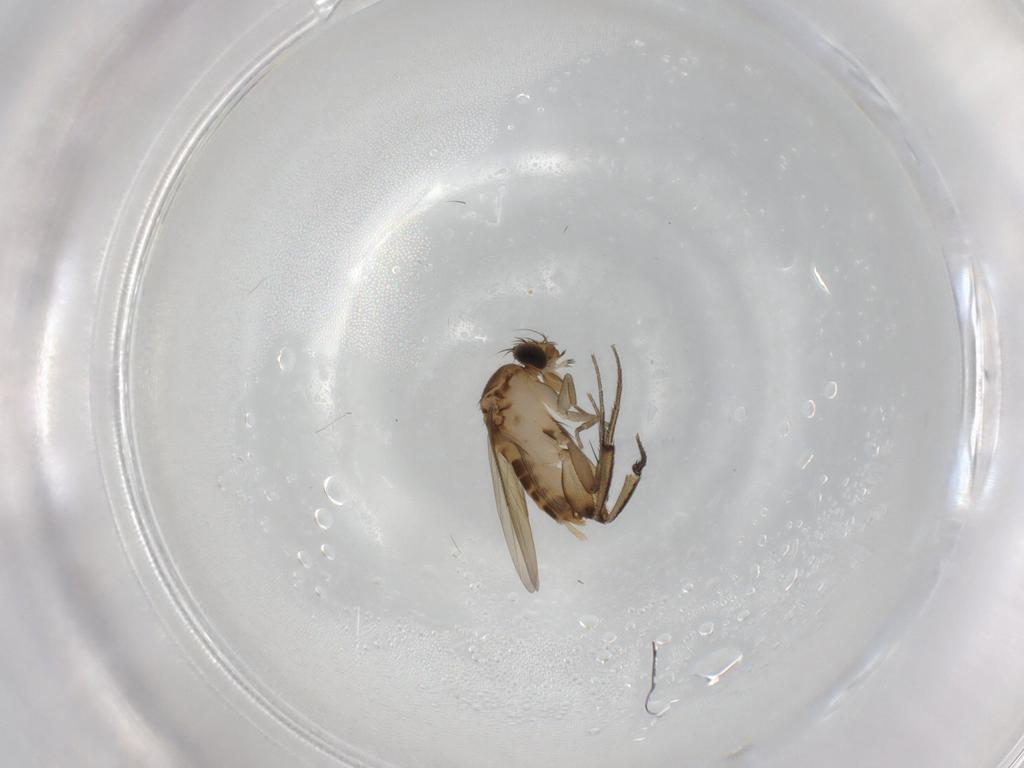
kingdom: Animalia
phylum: Arthropoda
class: Insecta
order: Diptera
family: Phoridae
